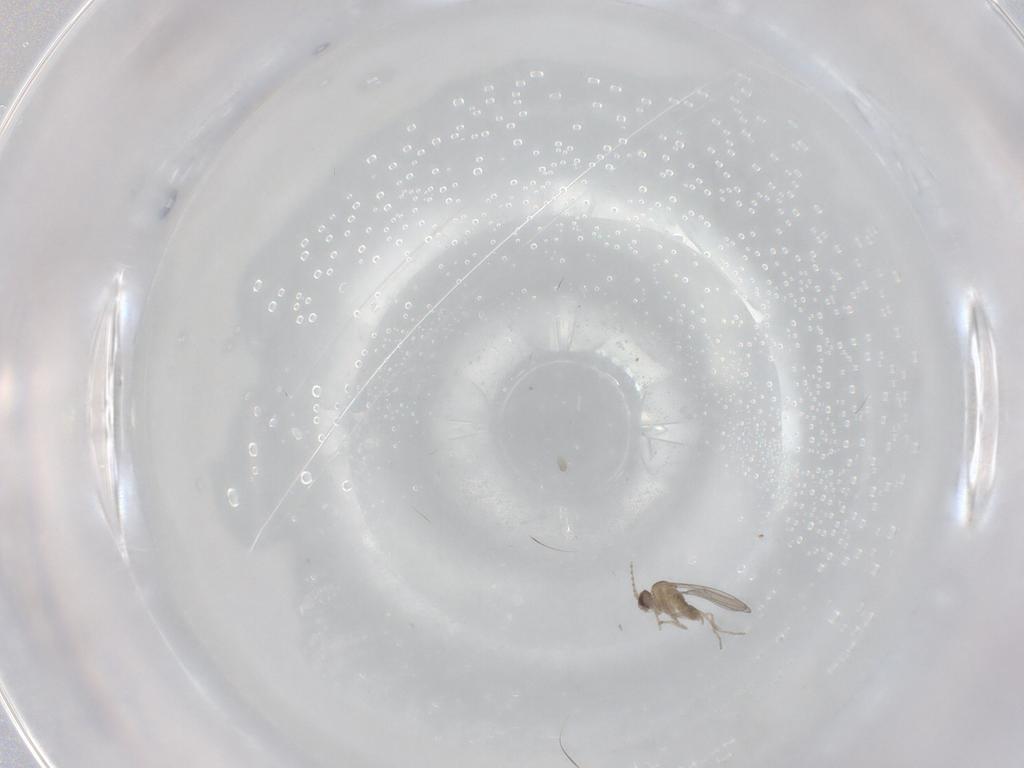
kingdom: Animalia
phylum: Arthropoda
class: Insecta
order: Diptera
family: Cecidomyiidae
